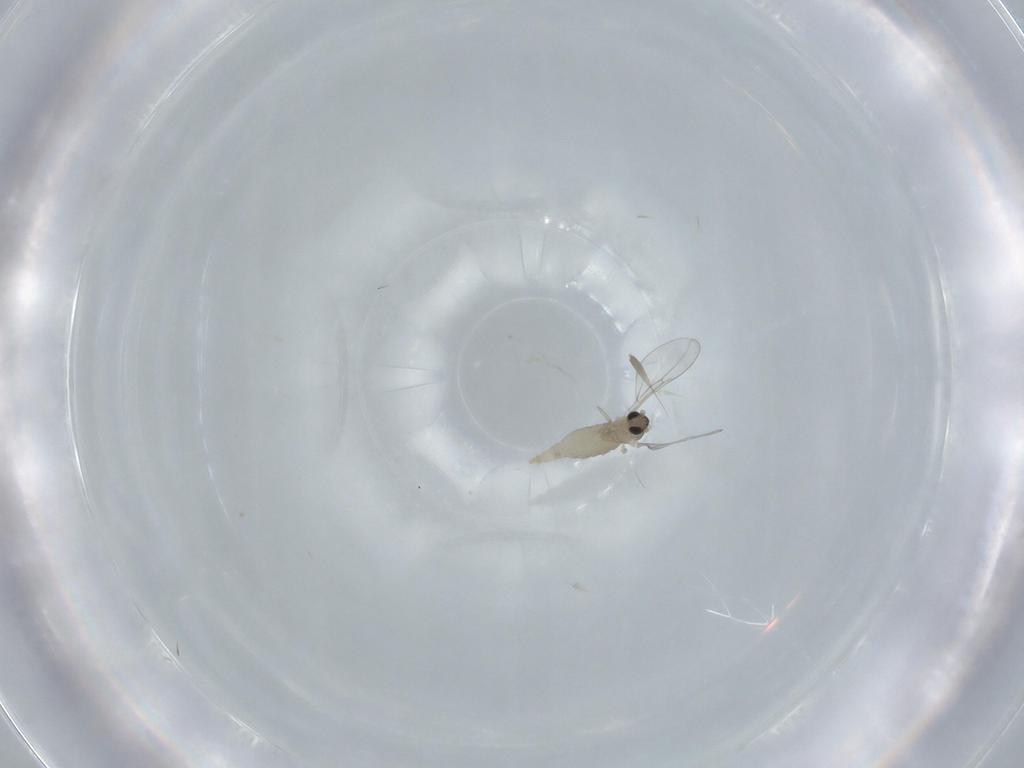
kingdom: Animalia
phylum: Arthropoda
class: Insecta
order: Diptera
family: Cecidomyiidae
